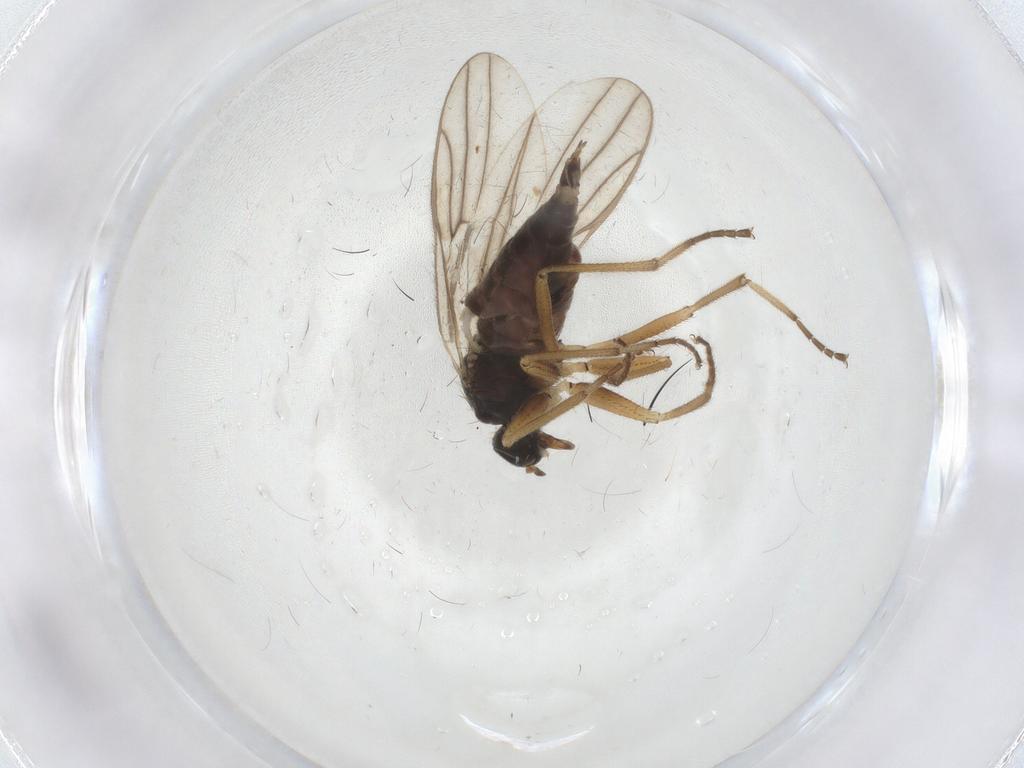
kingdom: Animalia
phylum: Arthropoda
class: Insecta
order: Diptera
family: Hybotidae
